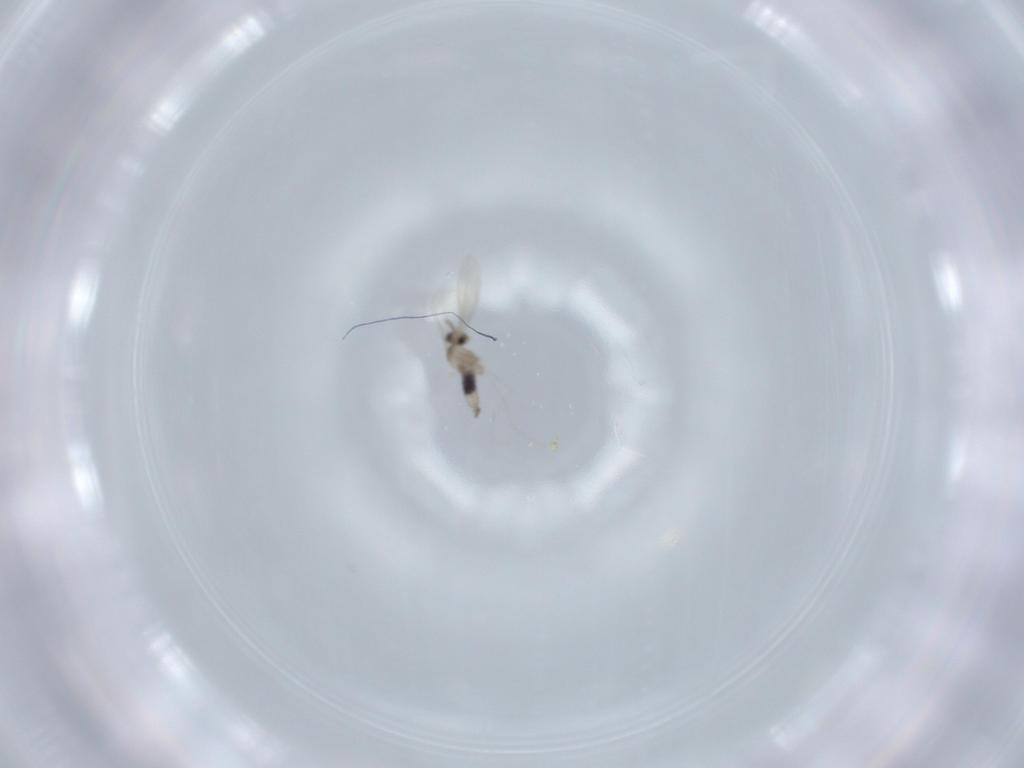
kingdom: Animalia
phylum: Arthropoda
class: Insecta
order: Diptera
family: Cecidomyiidae
